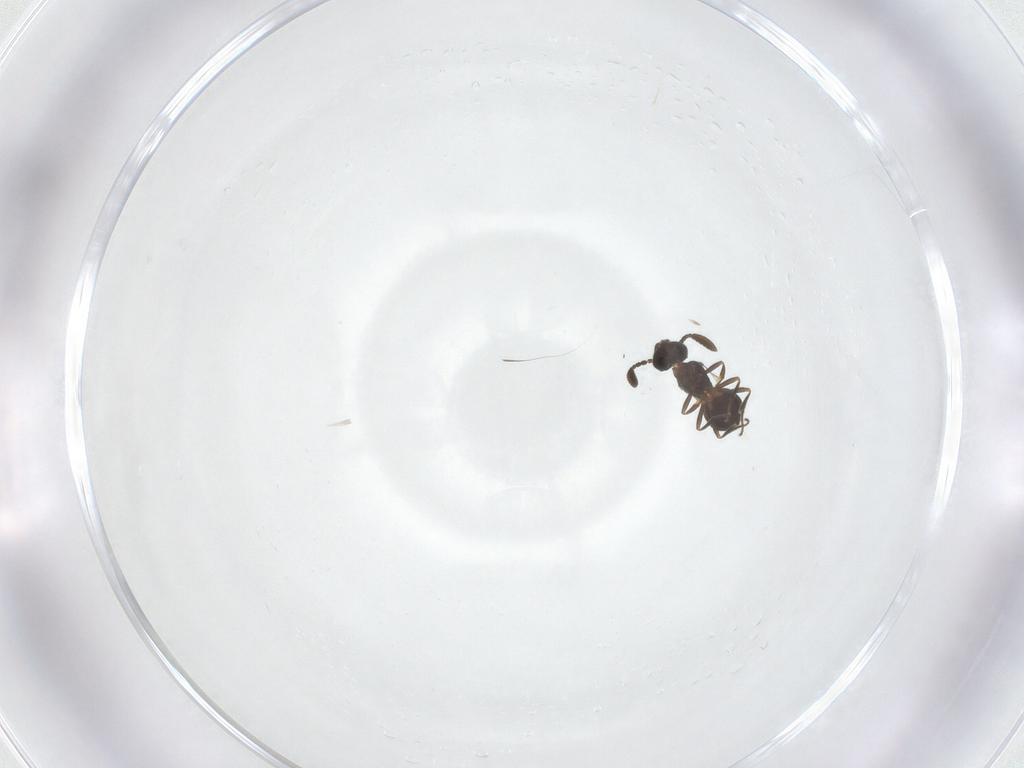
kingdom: Animalia
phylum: Arthropoda
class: Insecta
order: Hymenoptera
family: Scelionidae
